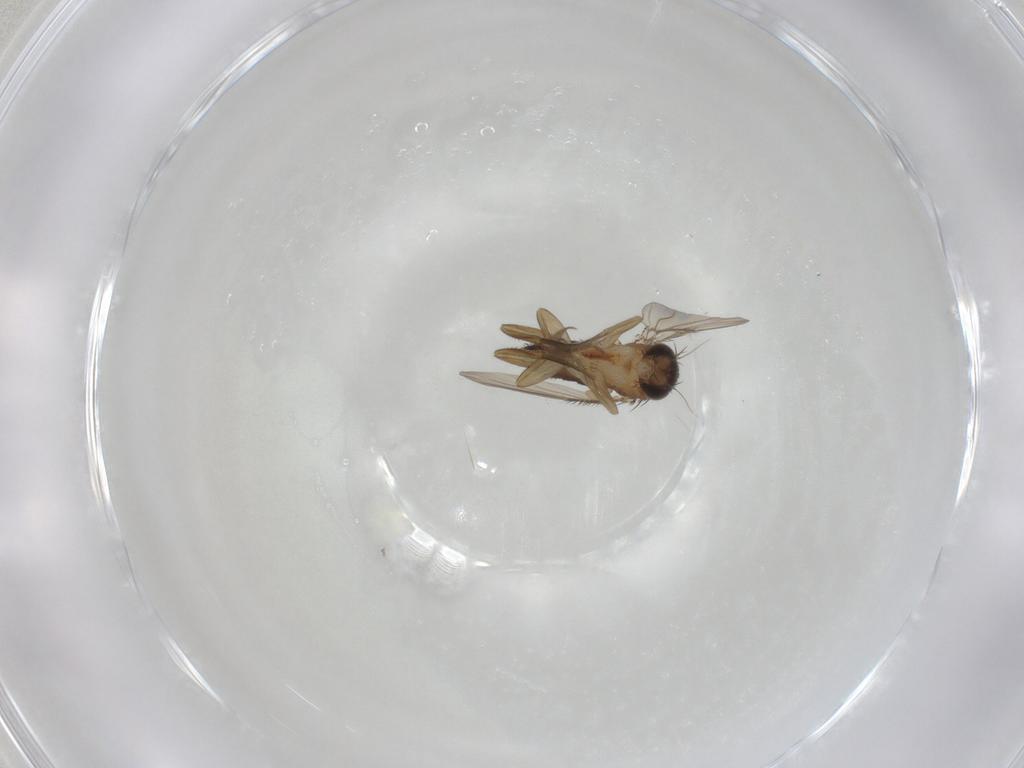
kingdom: Animalia
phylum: Arthropoda
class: Insecta
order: Diptera
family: Phoridae
